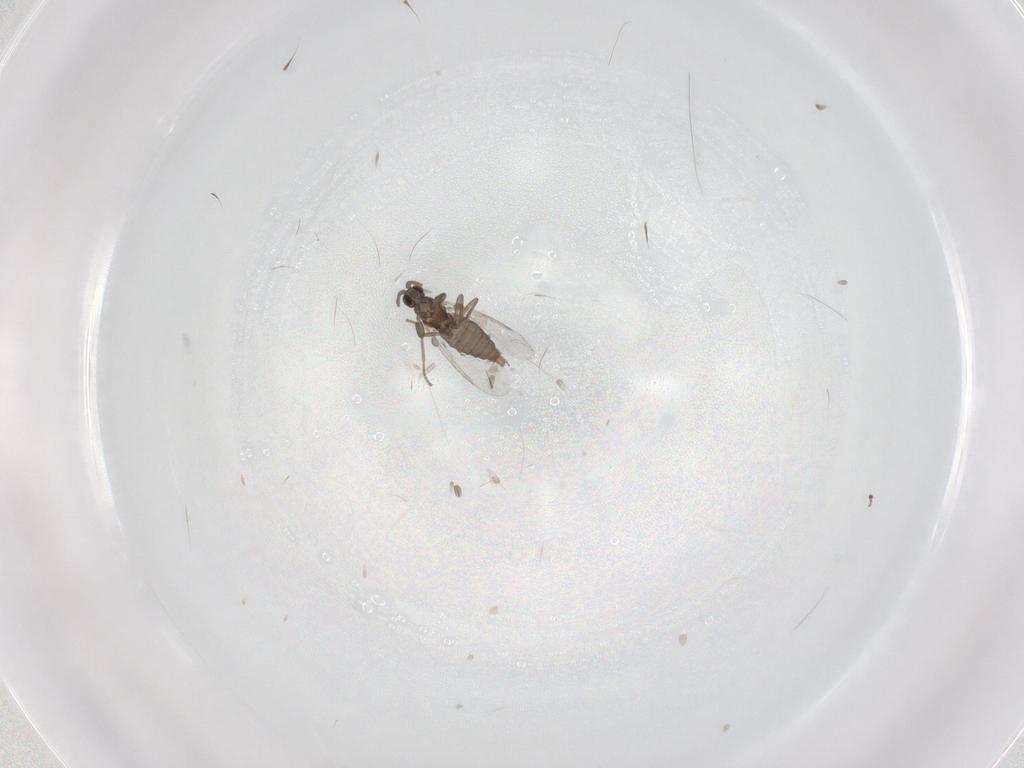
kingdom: Animalia
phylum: Arthropoda
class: Insecta
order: Diptera
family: Cecidomyiidae
